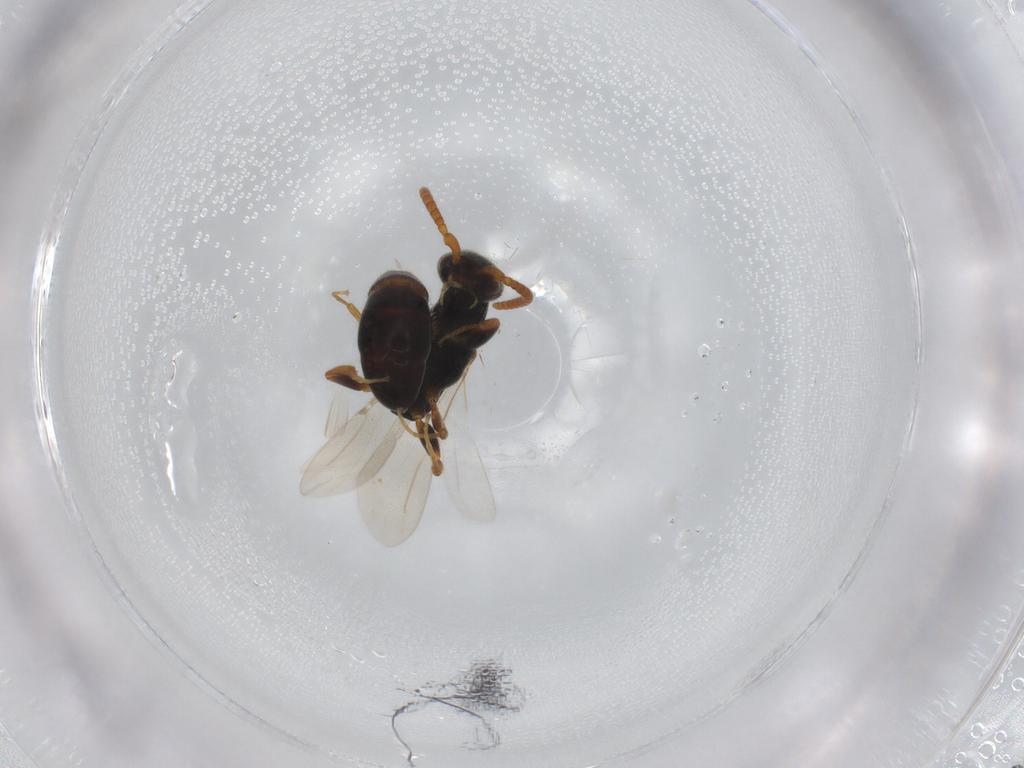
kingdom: Animalia
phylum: Arthropoda
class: Insecta
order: Hymenoptera
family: Bethylidae
